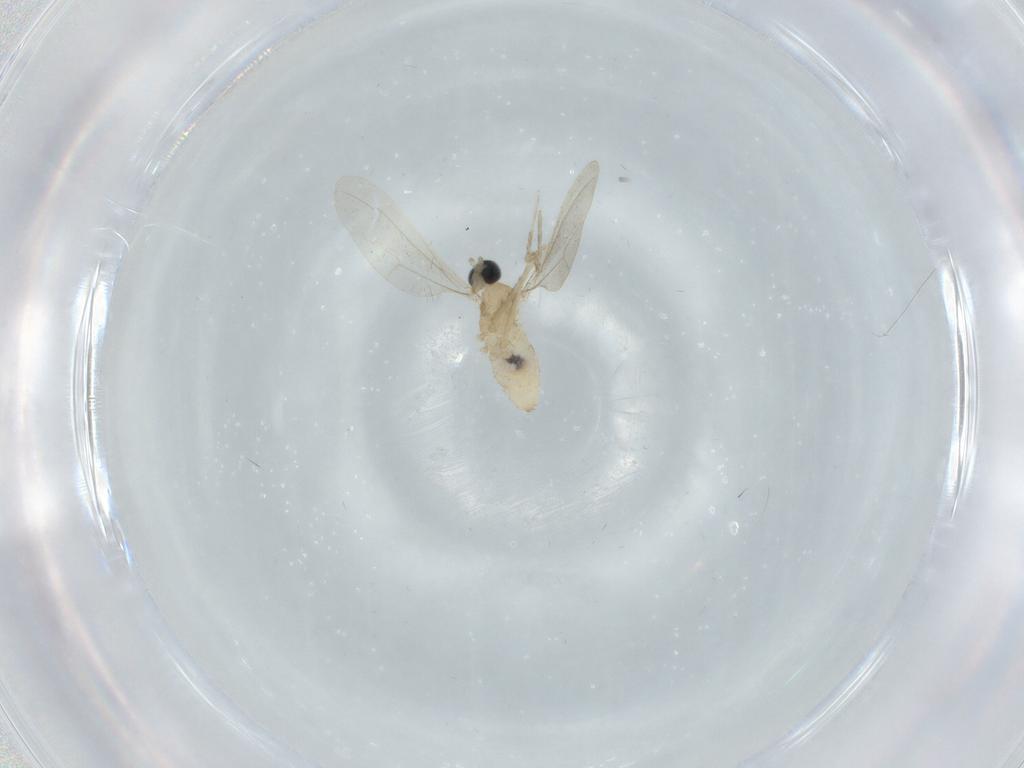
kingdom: Animalia
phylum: Arthropoda
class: Insecta
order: Diptera
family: Cecidomyiidae
